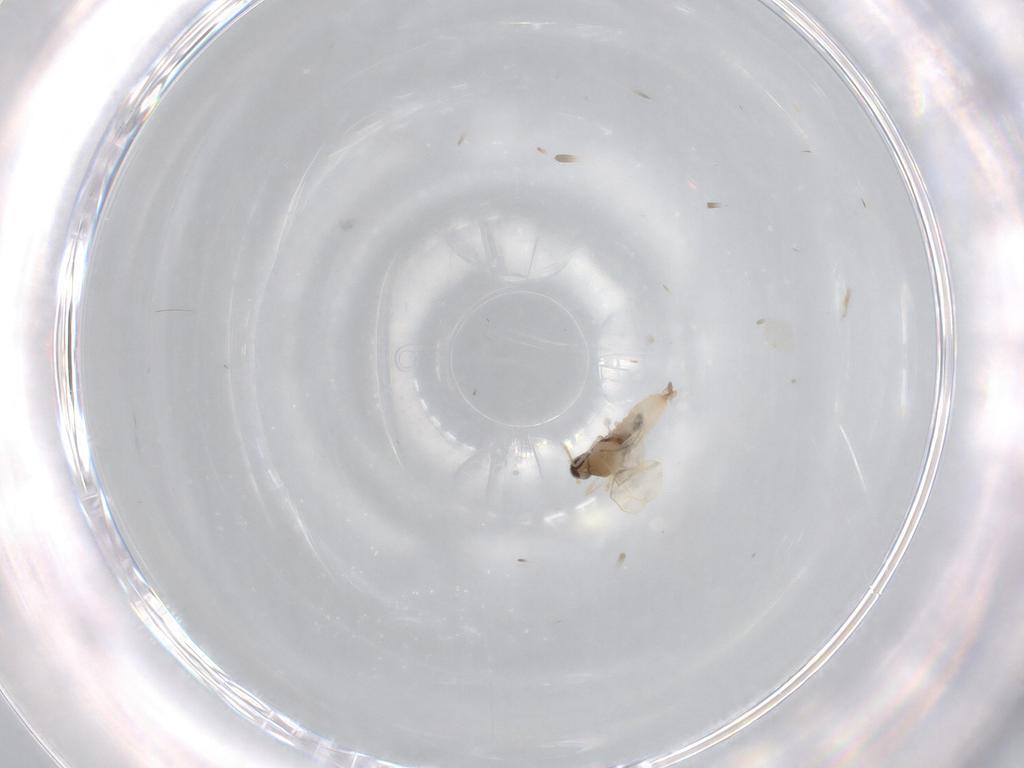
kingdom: Animalia
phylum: Arthropoda
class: Insecta
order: Diptera
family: Cecidomyiidae
